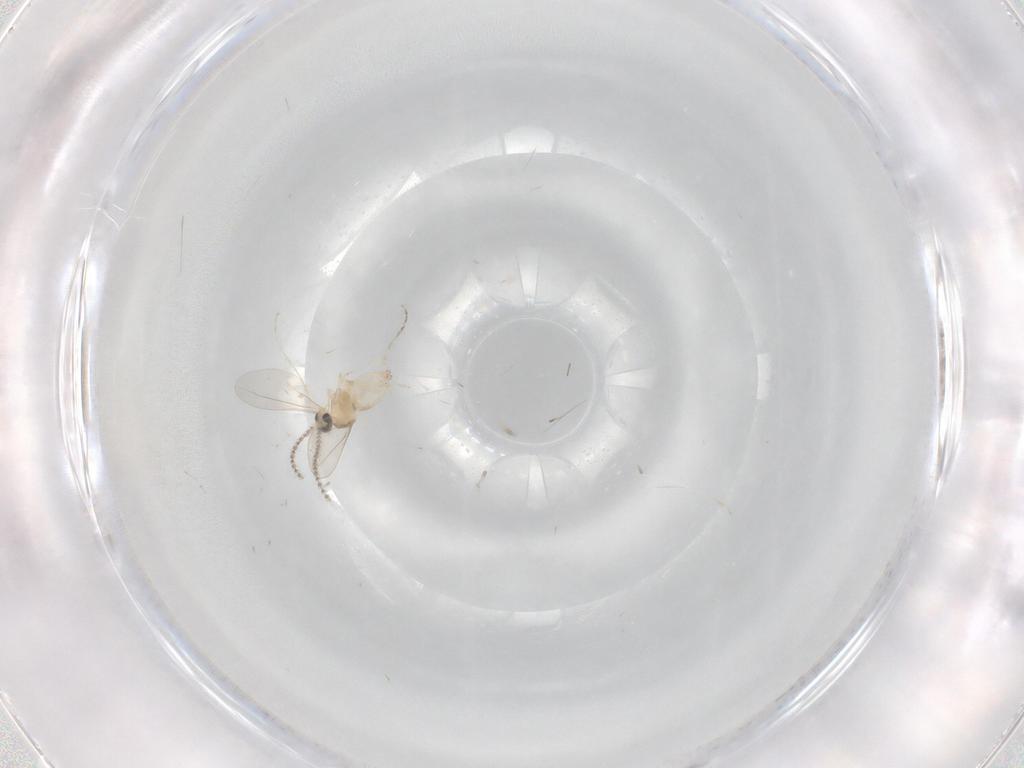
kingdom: Animalia
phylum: Arthropoda
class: Insecta
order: Diptera
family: Cecidomyiidae
